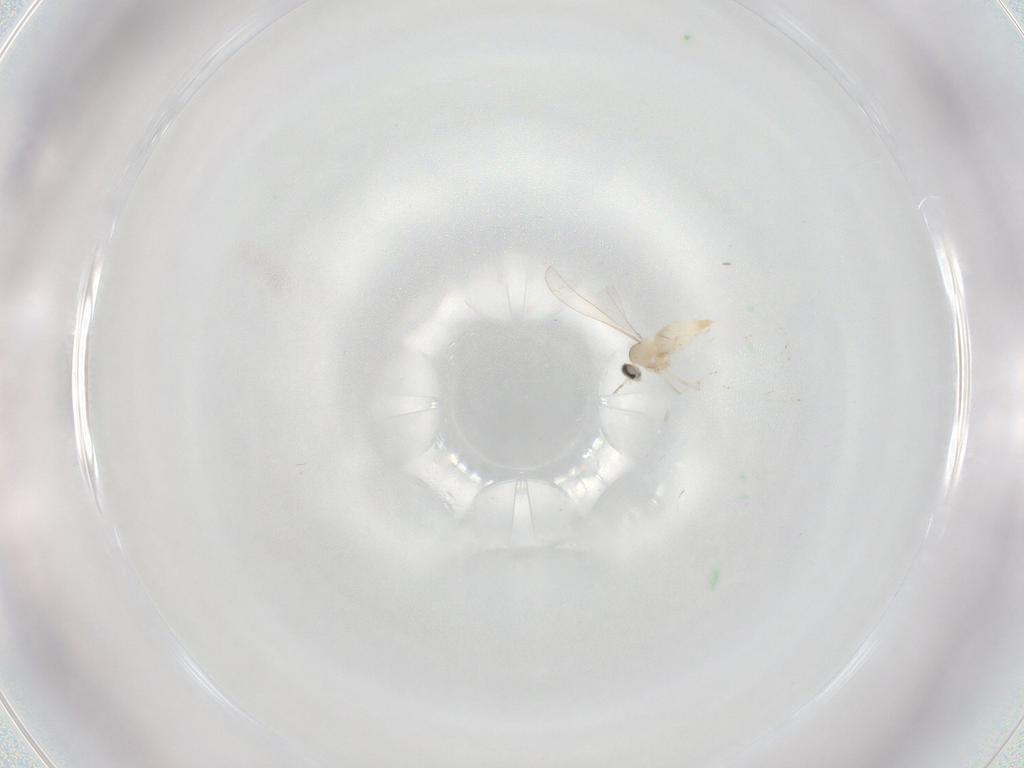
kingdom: Animalia
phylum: Arthropoda
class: Insecta
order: Diptera
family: Cecidomyiidae
